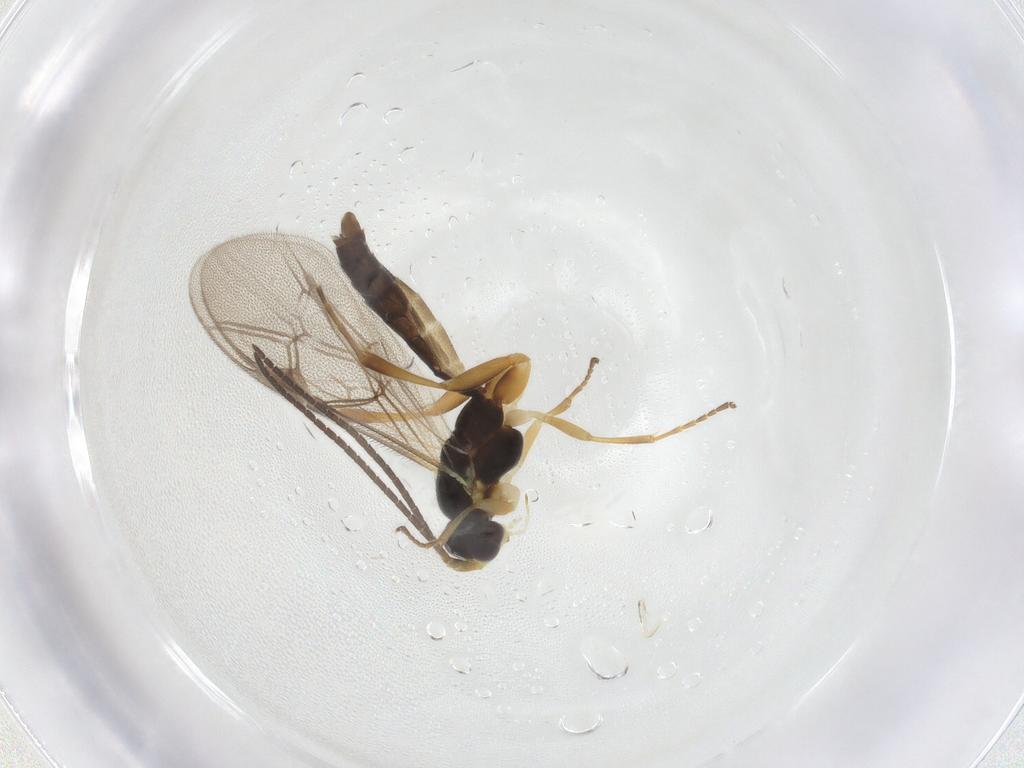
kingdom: Animalia
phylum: Arthropoda
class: Insecta
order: Hymenoptera
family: Ichneumonidae
